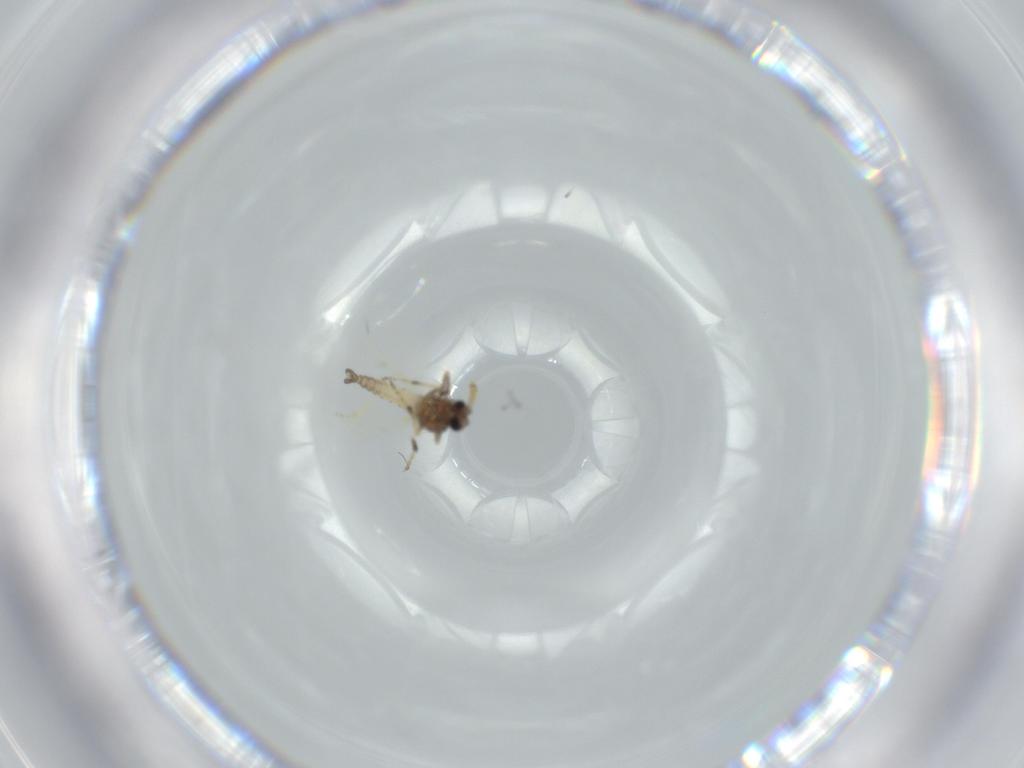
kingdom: Animalia
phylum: Arthropoda
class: Insecta
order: Diptera
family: Ceratopogonidae
